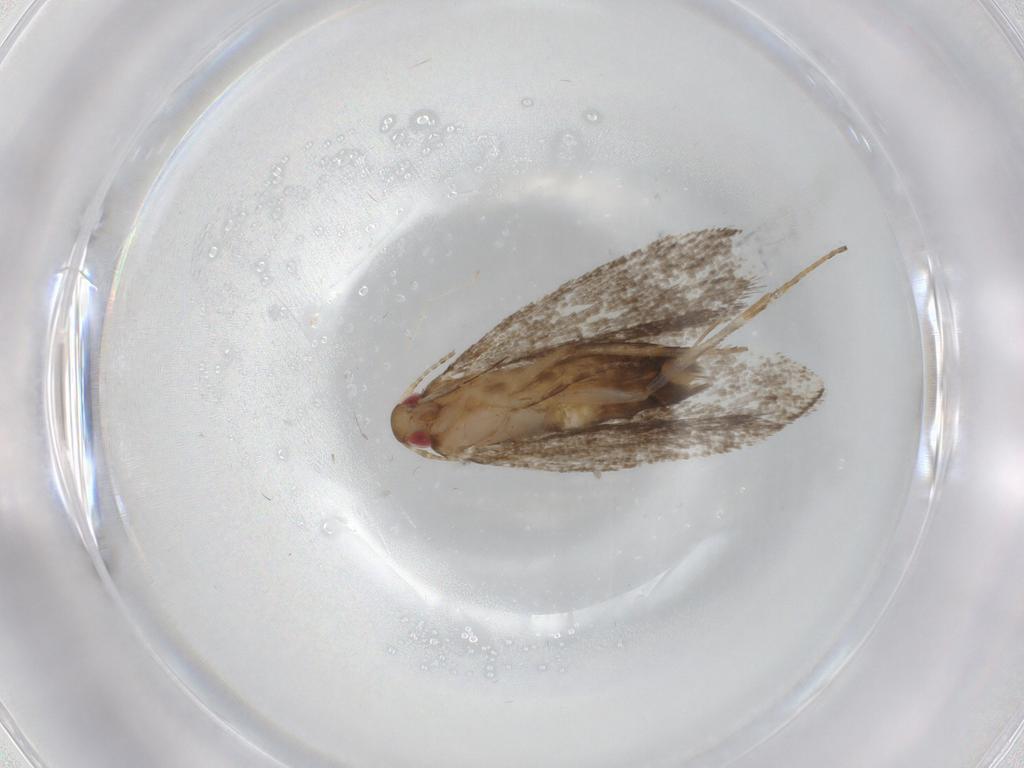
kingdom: Animalia
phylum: Arthropoda
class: Insecta
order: Lepidoptera
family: Gelechiidae
